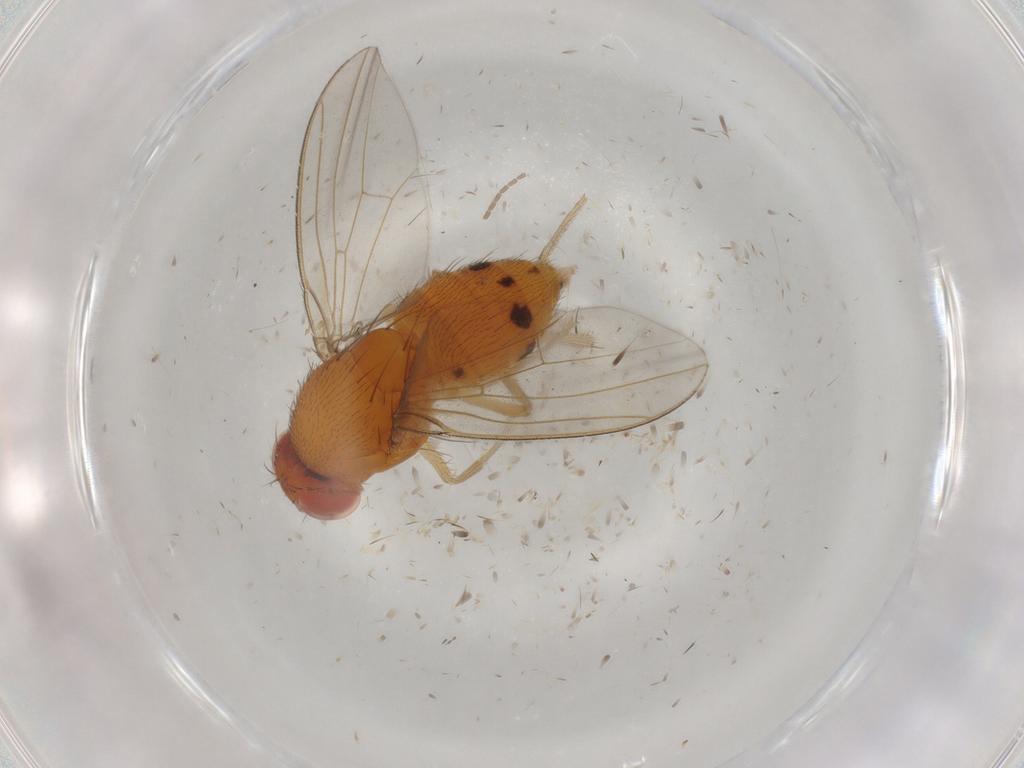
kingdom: Animalia
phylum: Arthropoda
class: Insecta
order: Diptera
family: Drosophilidae
